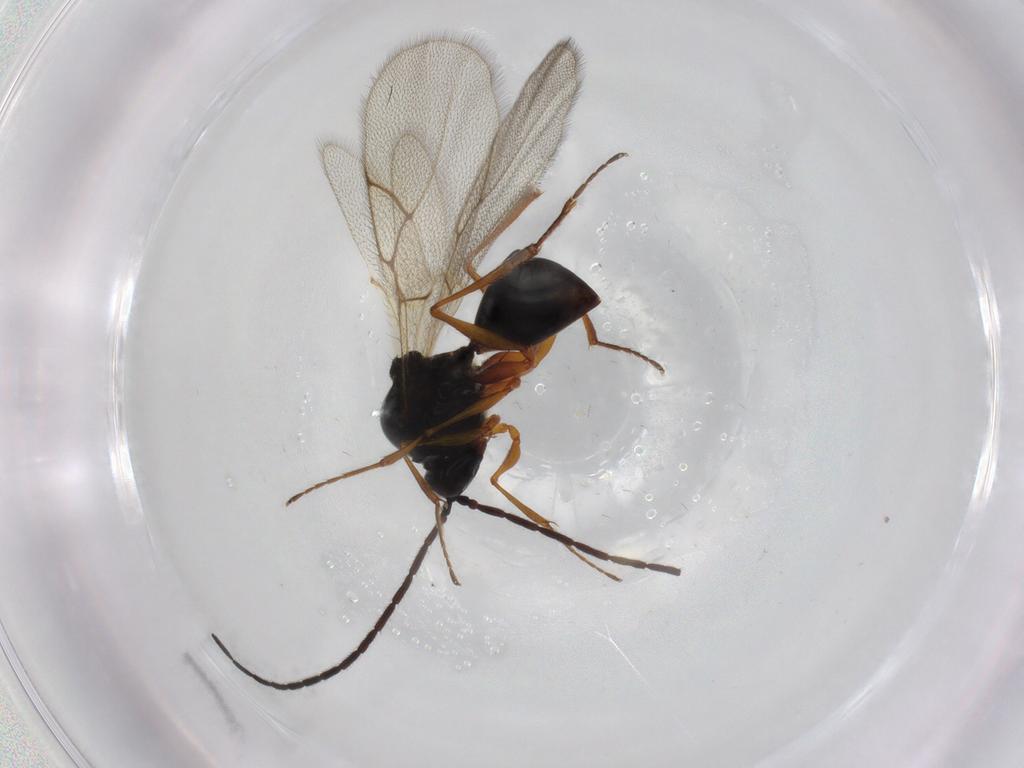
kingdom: Animalia
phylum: Arthropoda
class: Insecta
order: Hymenoptera
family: Figitidae
